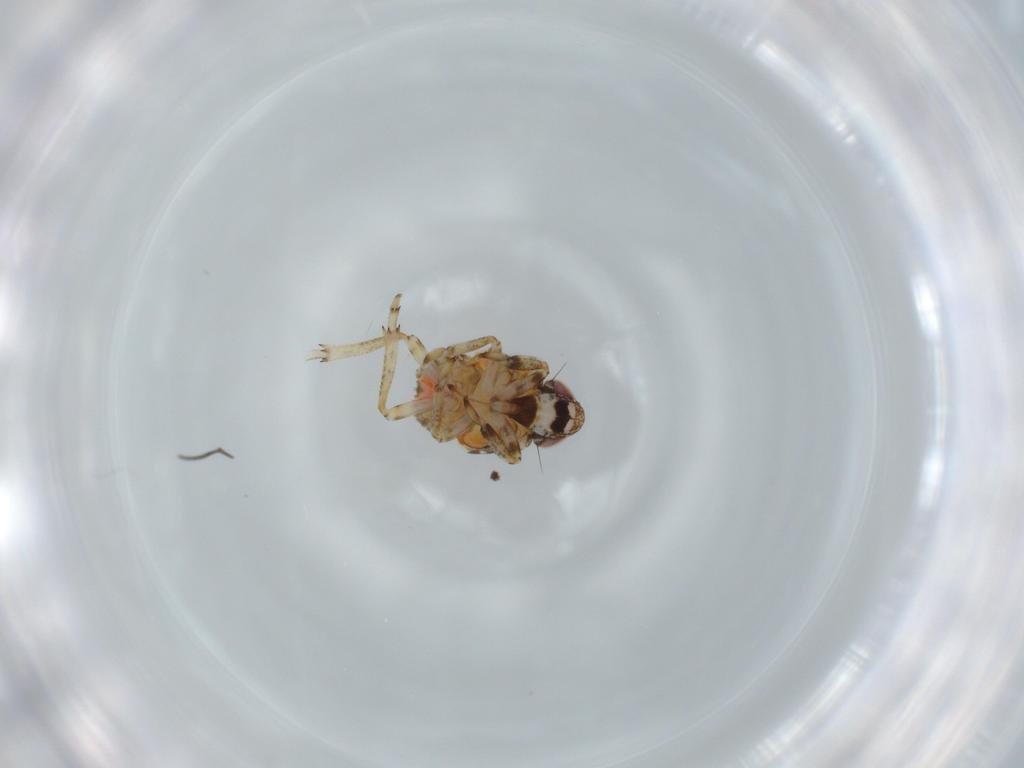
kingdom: Animalia
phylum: Arthropoda
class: Insecta
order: Hemiptera
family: Issidae
